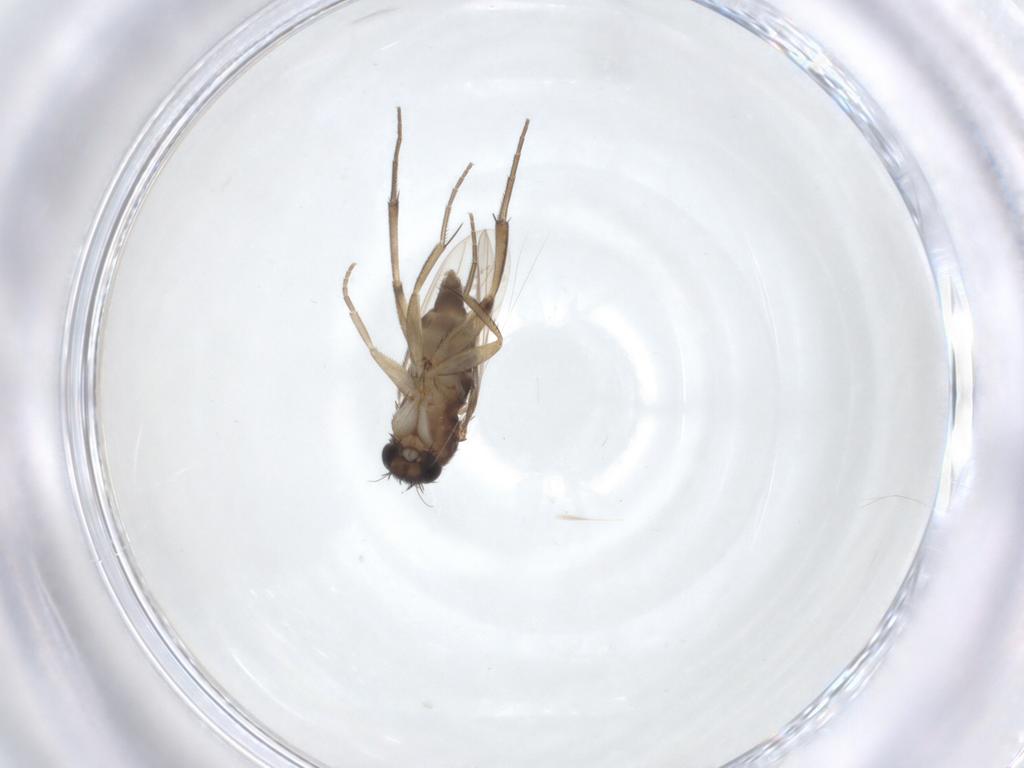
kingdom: Animalia
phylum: Arthropoda
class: Insecta
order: Diptera
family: Phoridae
